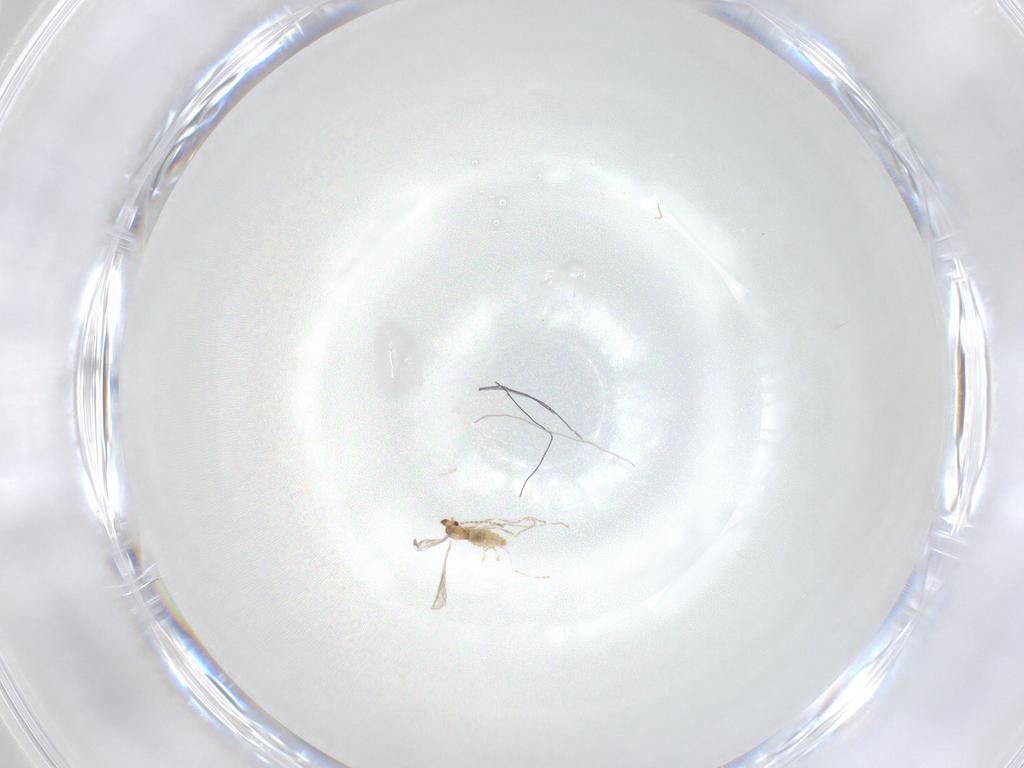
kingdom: Animalia
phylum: Arthropoda
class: Insecta
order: Diptera
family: Cecidomyiidae
